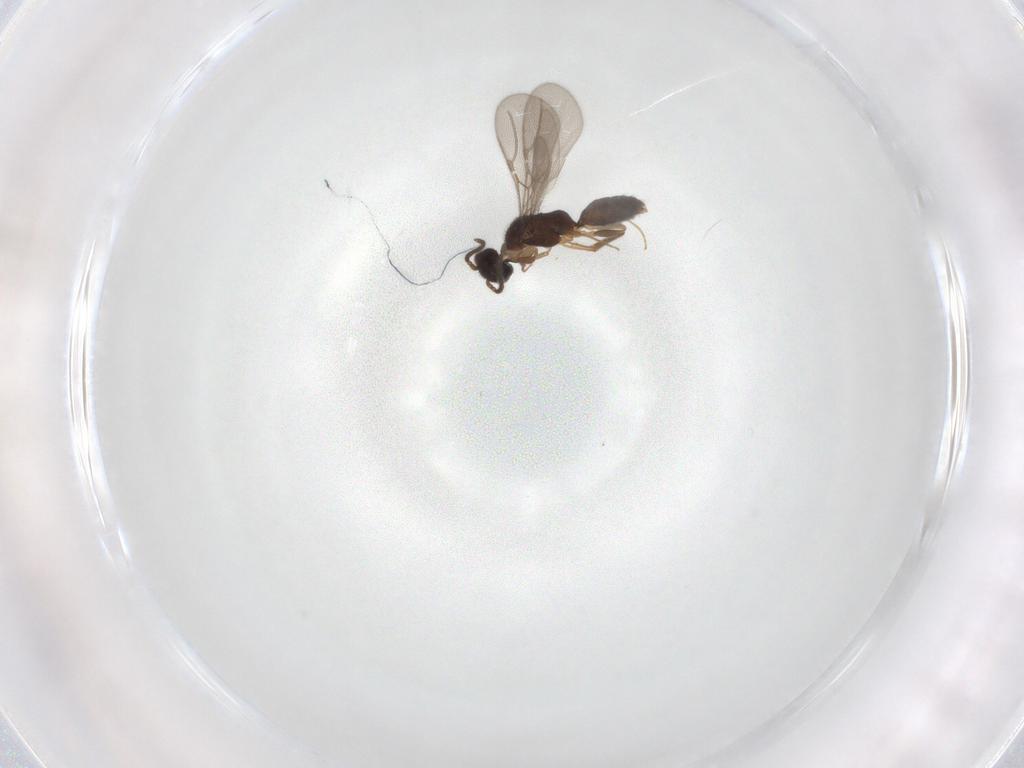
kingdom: Animalia
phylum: Arthropoda
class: Insecta
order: Hymenoptera
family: Bethylidae
